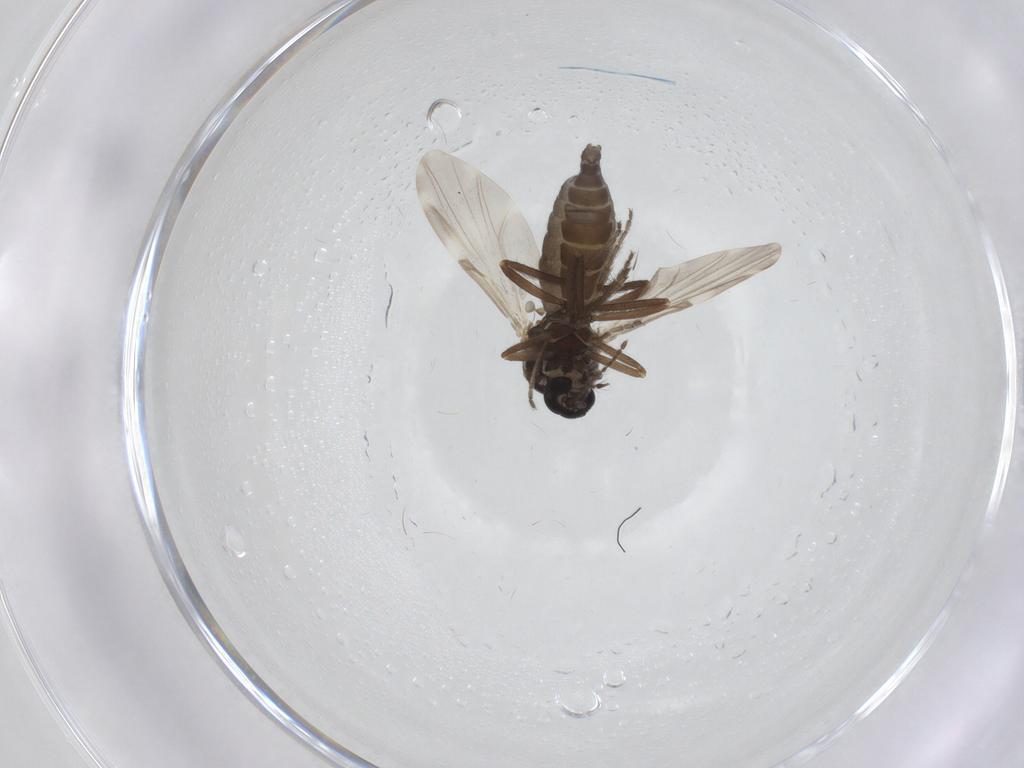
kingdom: Animalia
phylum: Arthropoda
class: Insecta
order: Diptera
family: Ceratopogonidae
